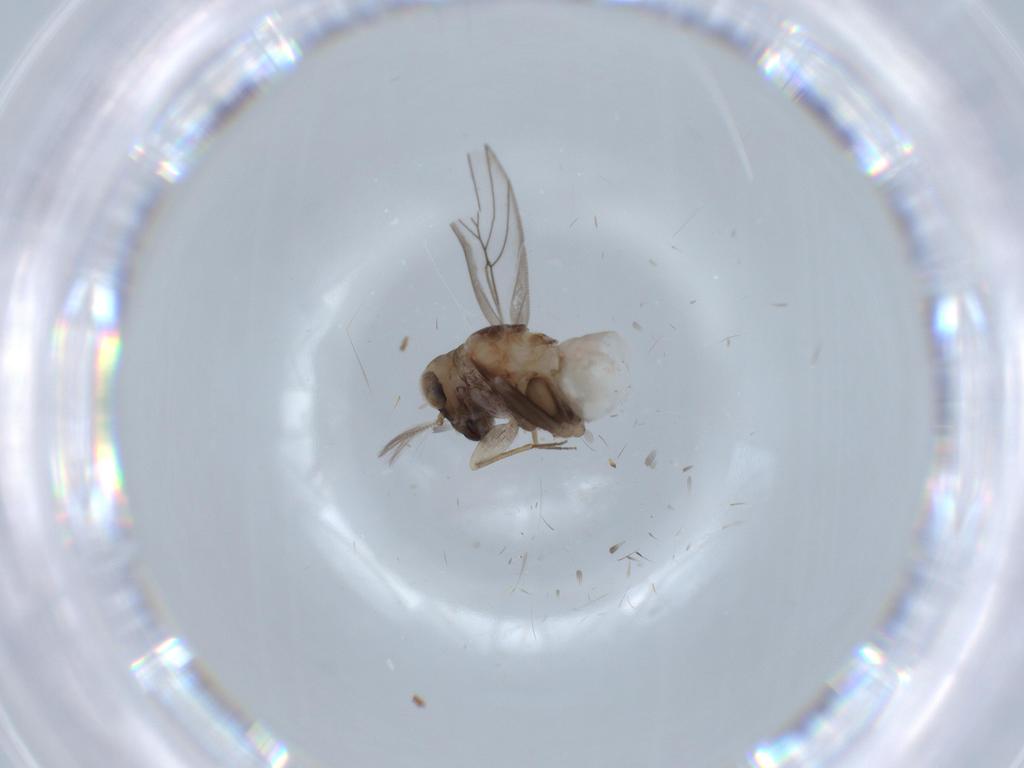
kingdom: Animalia
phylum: Arthropoda
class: Insecta
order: Psocodea
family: Lepidopsocidae
